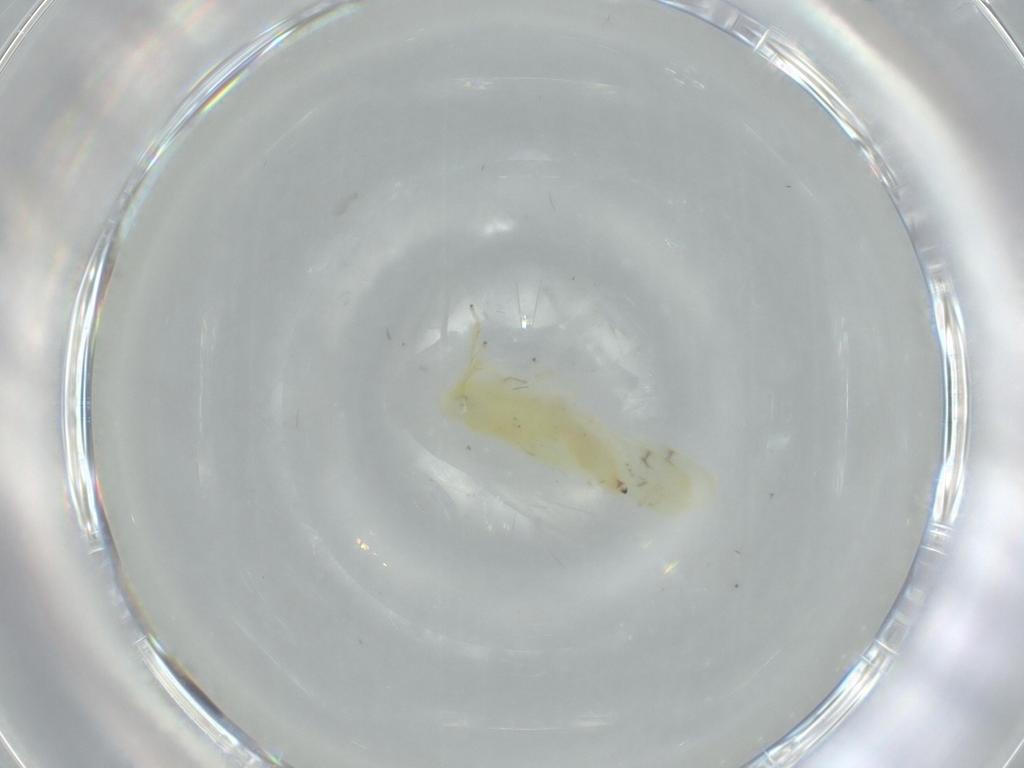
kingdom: Animalia
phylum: Arthropoda
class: Insecta
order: Hemiptera
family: Cicadellidae
